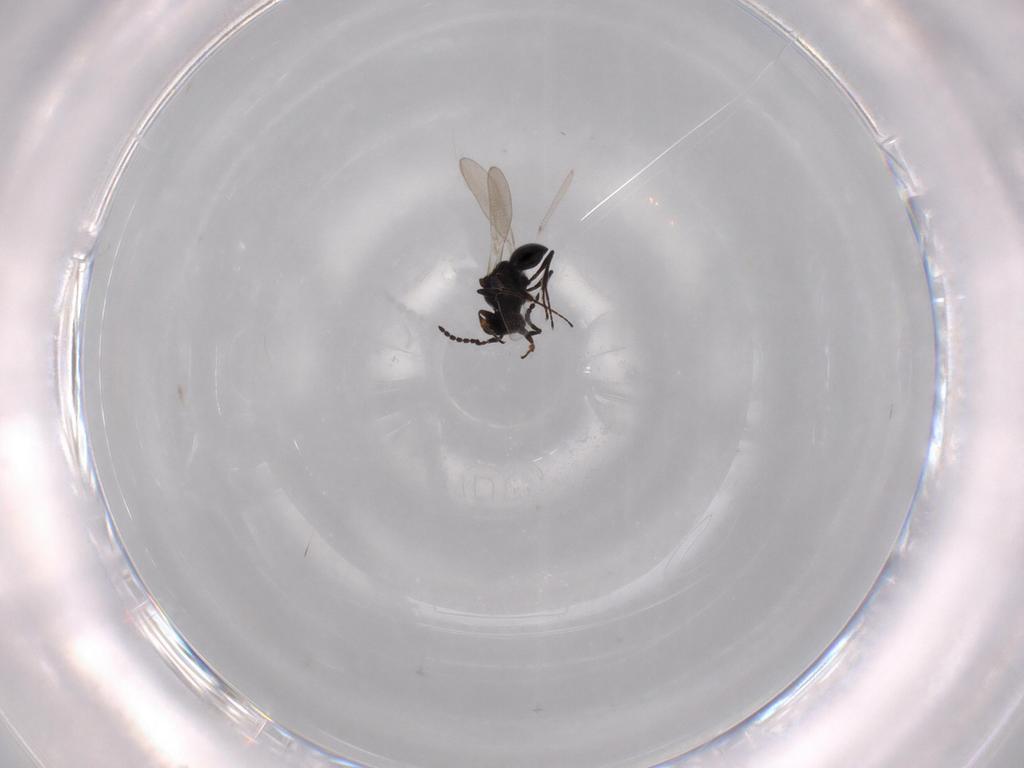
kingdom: Animalia
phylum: Arthropoda
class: Insecta
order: Hymenoptera
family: Platygastridae
